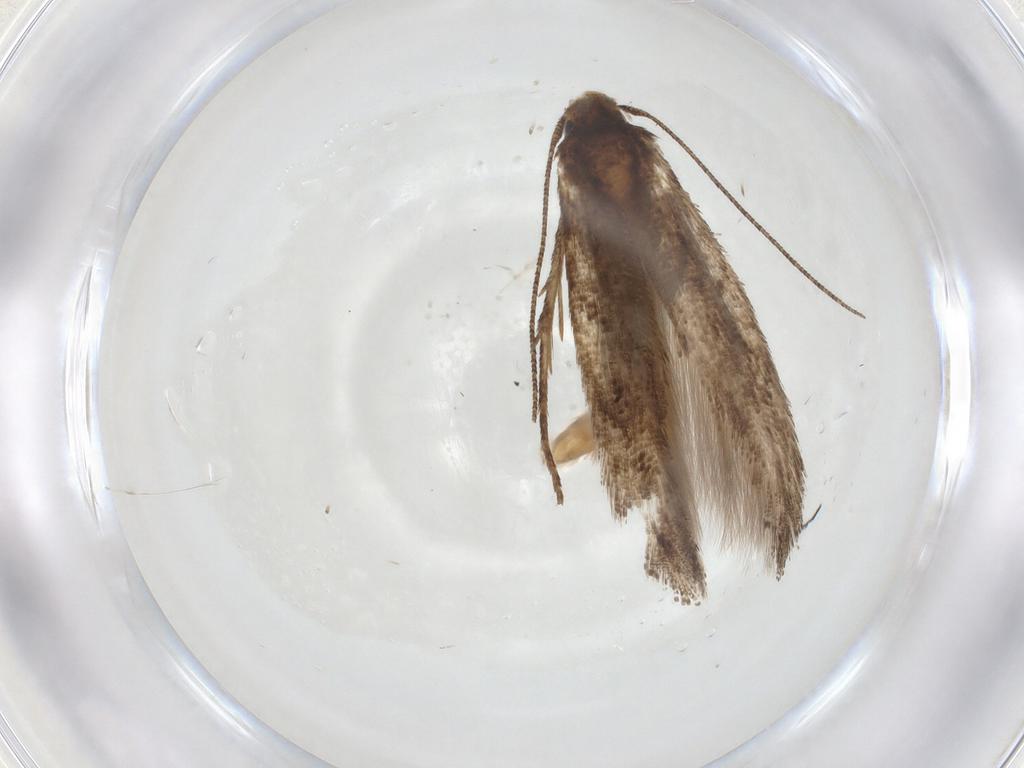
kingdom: Animalia
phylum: Arthropoda
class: Insecta
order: Lepidoptera
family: Momphidae
